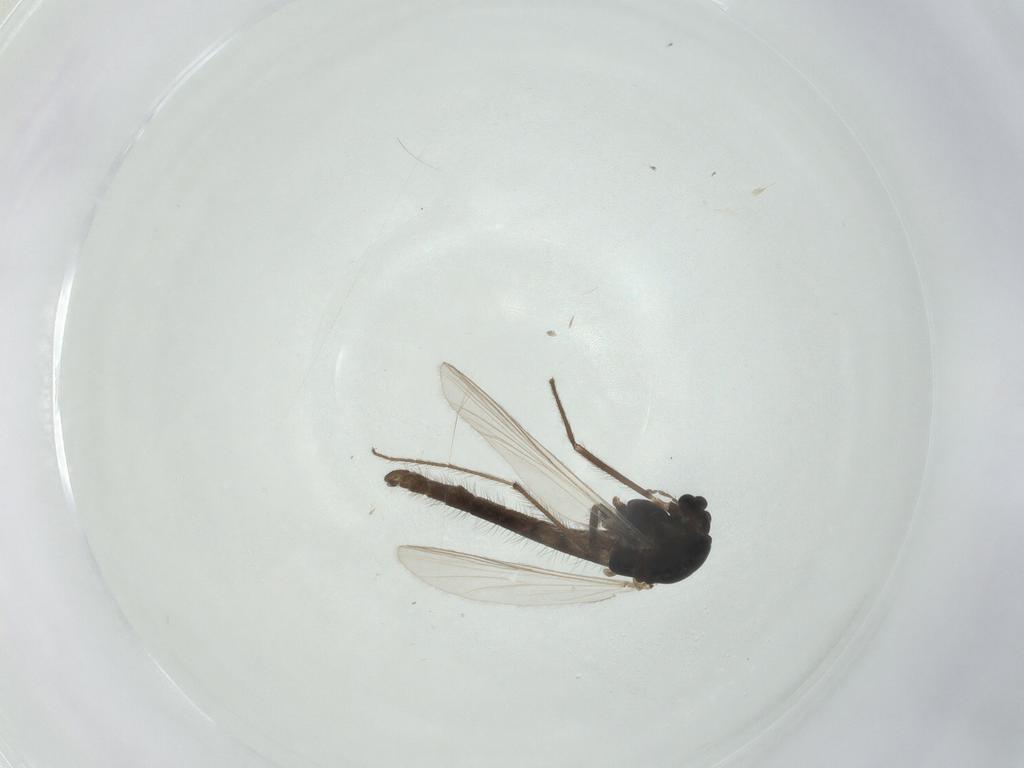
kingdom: Animalia
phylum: Arthropoda
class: Insecta
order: Diptera
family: Chironomidae
